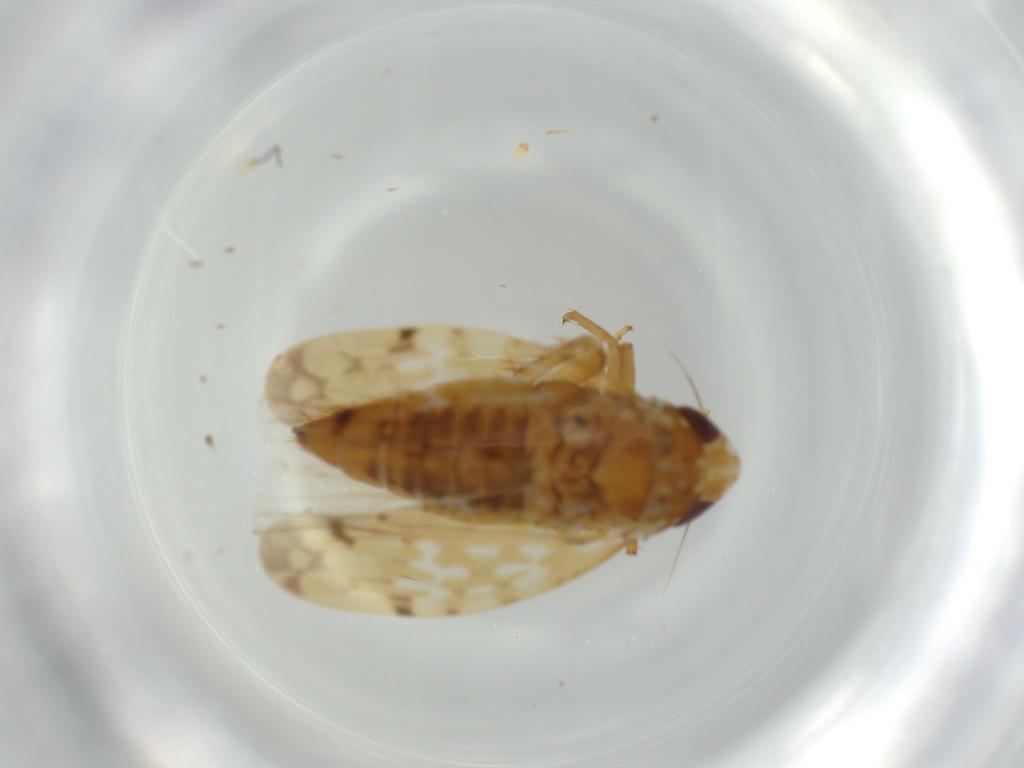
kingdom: Animalia
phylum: Arthropoda
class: Insecta
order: Hemiptera
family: Cicadellidae
